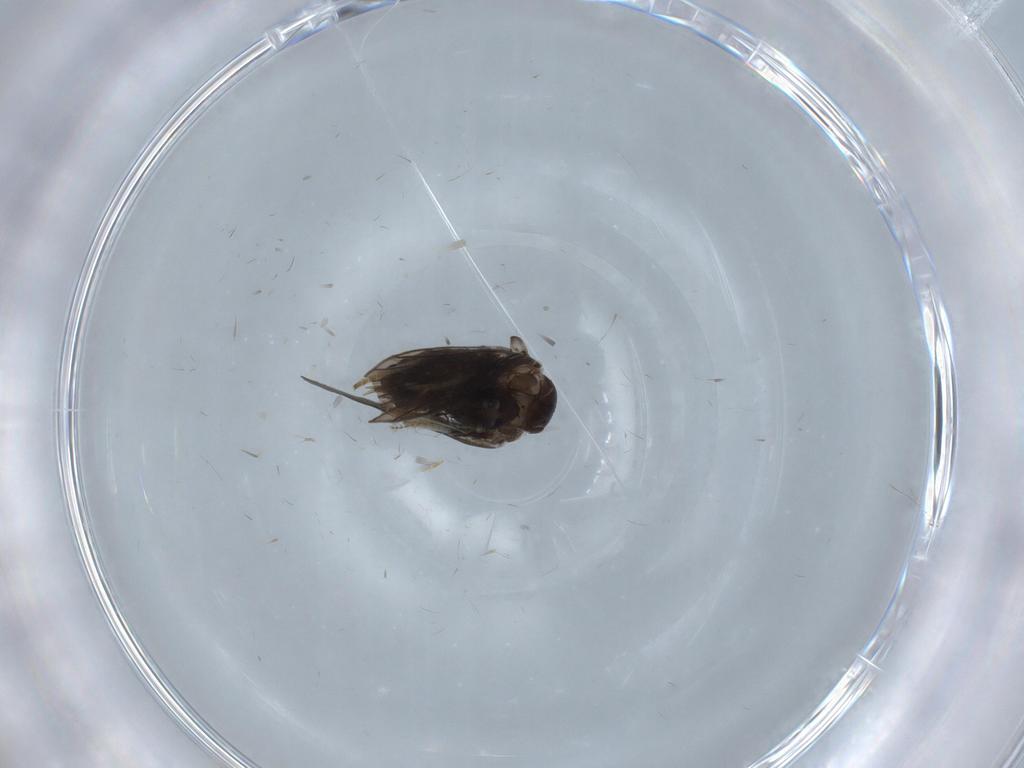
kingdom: Animalia
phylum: Arthropoda
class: Insecta
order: Diptera
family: Psychodidae
